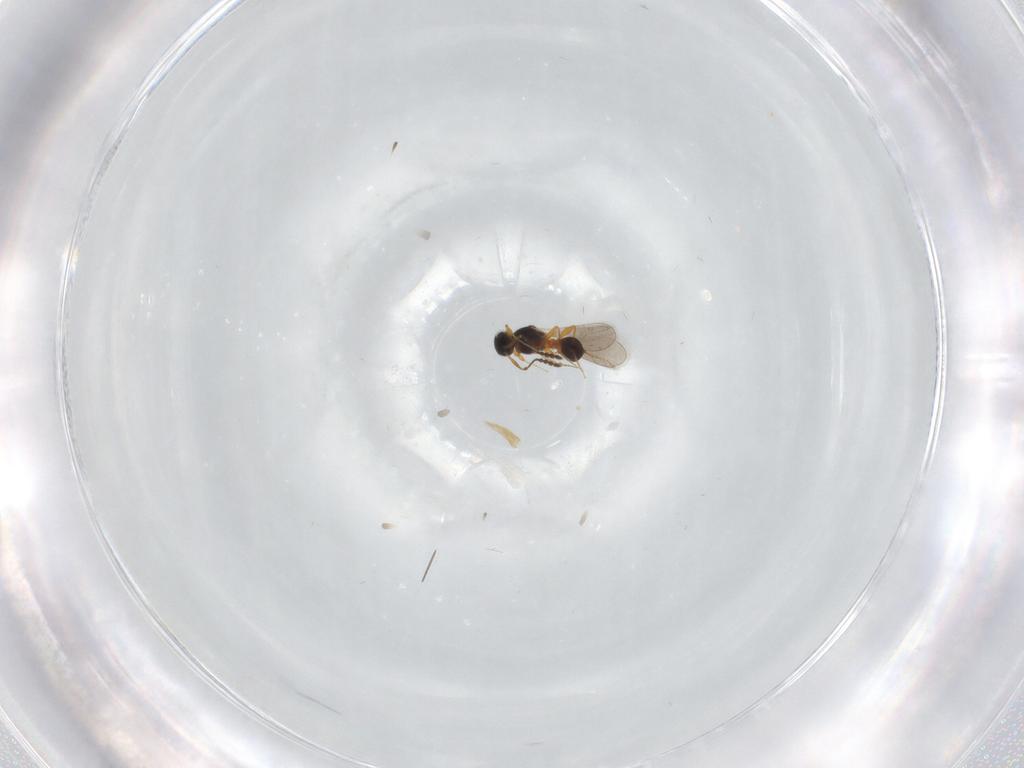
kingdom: Animalia
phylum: Arthropoda
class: Insecta
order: Hymenoptera
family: Platygastridae
